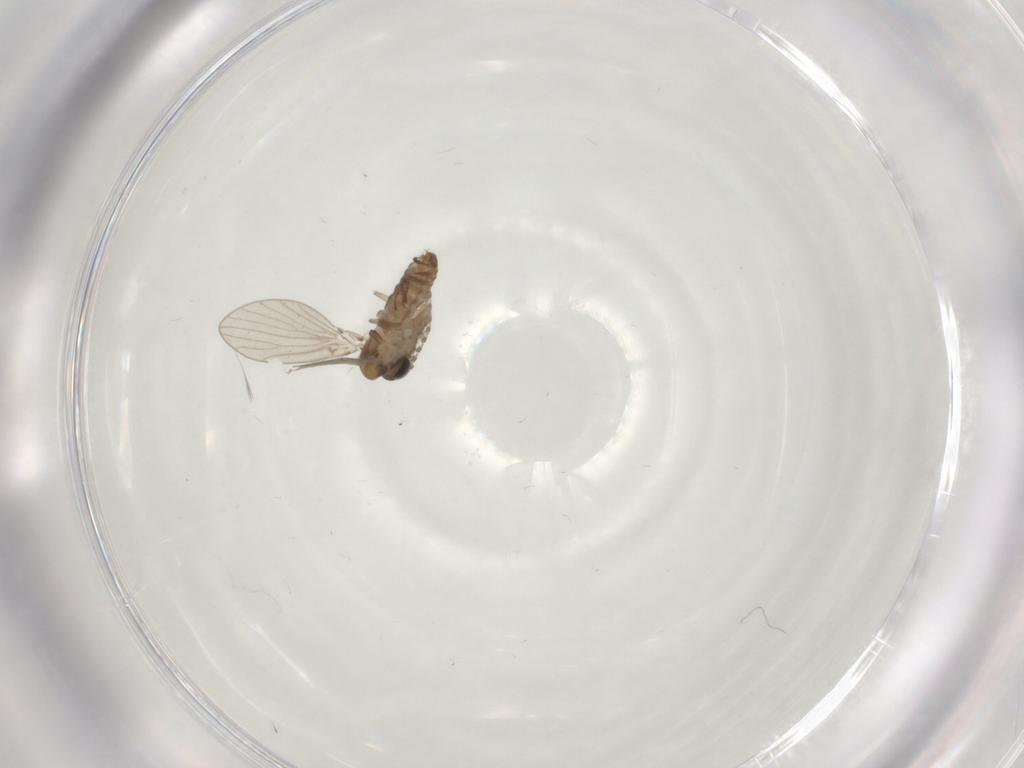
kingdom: Animalia
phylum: Arthropoda
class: Insecta
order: Diptera
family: Psychodidae
